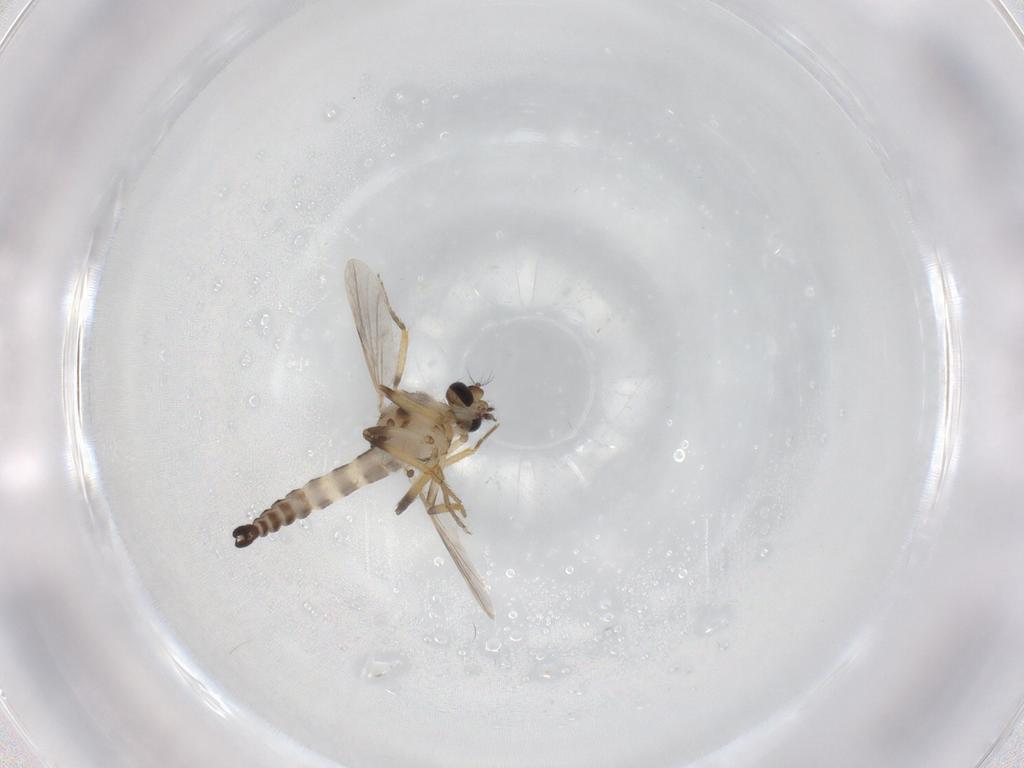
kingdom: Animalia
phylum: Arthropoda
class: Insecta
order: Diptera
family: Ceratopogonidae
